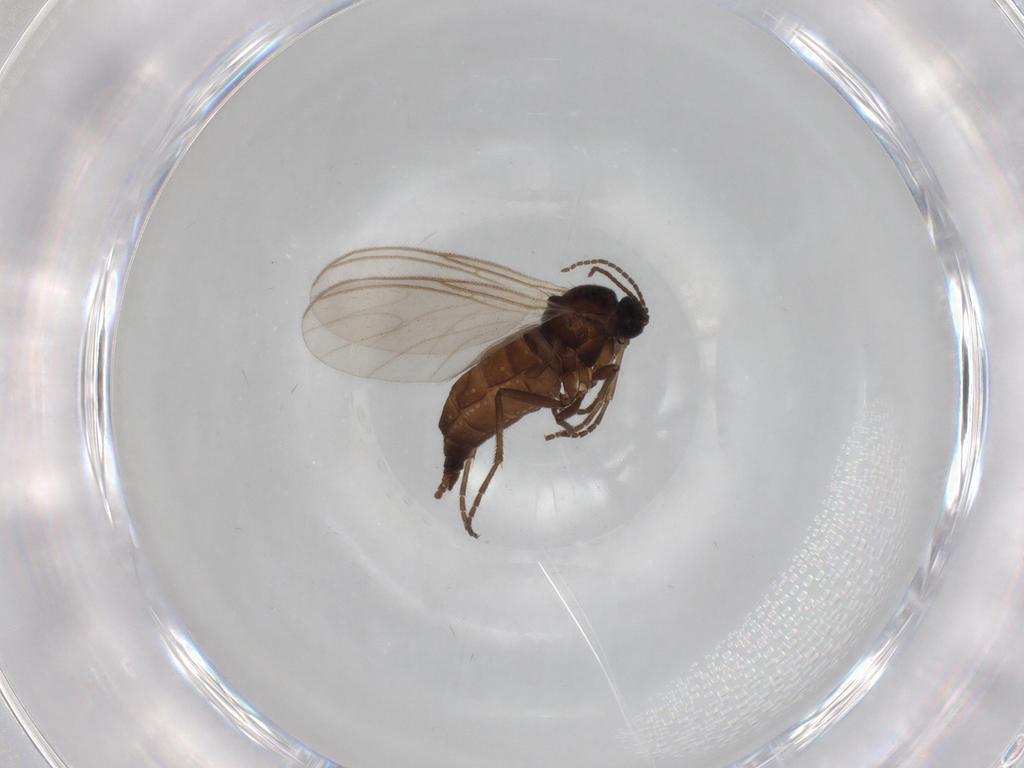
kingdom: Animalia
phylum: Arthropoda
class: Insecta
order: Diptera
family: Sciaridae
